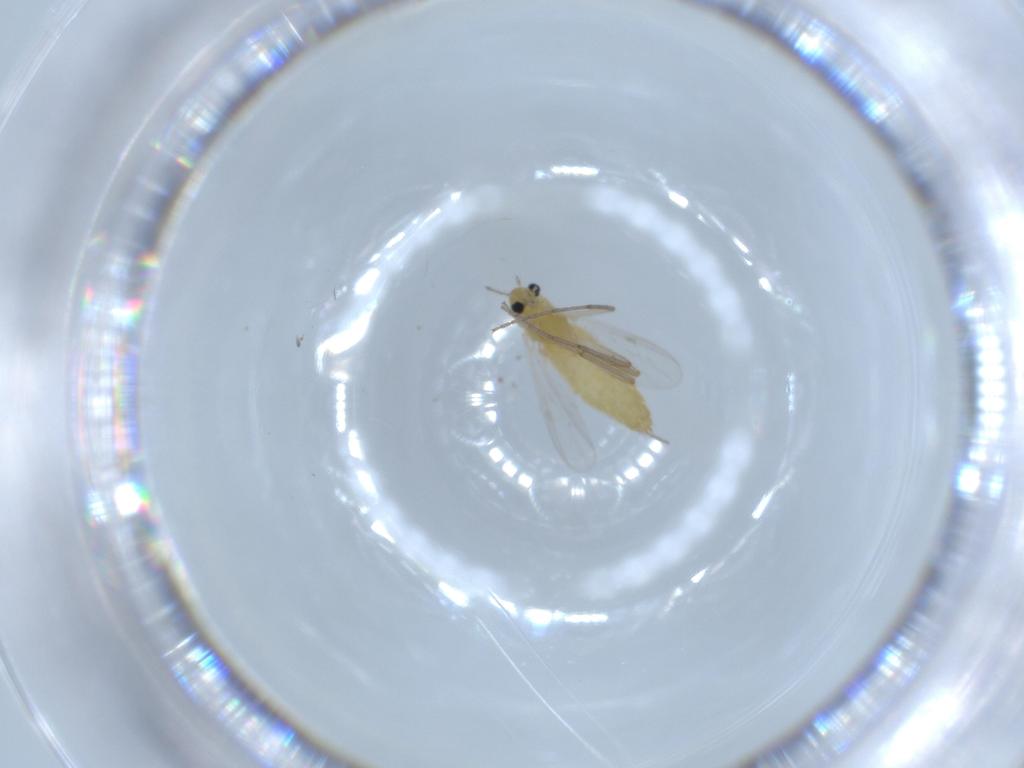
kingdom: Animalia
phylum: Arthropoda
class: Insecta
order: Diptera
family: Chironomidae
